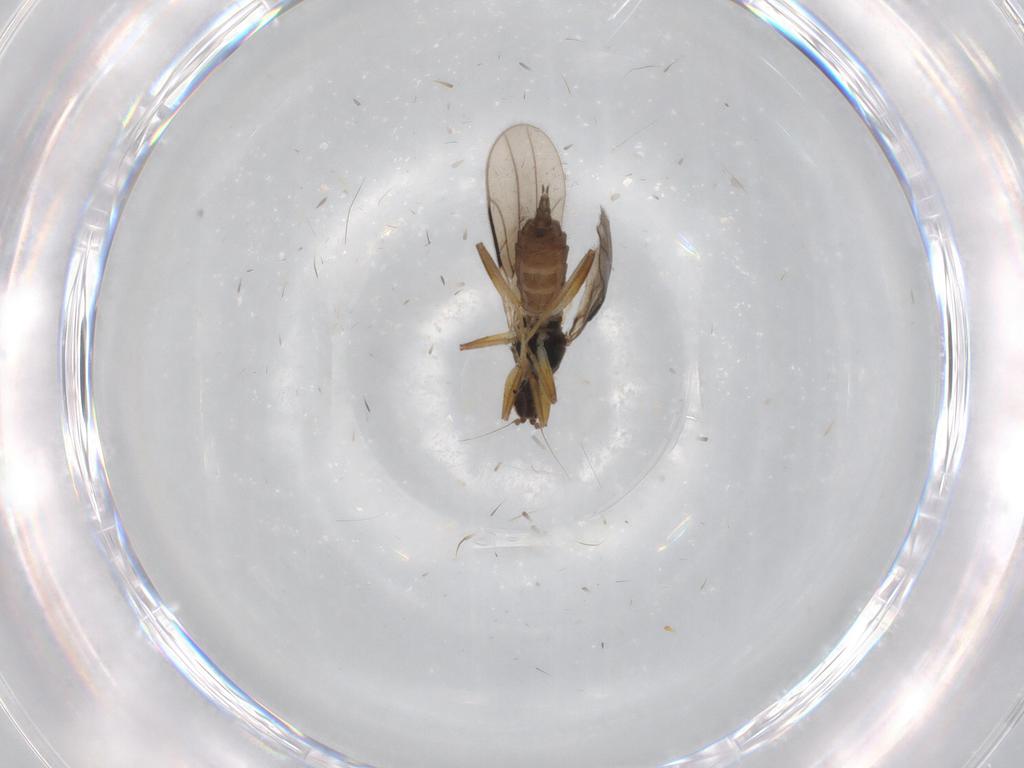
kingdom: Animalia
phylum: Arthropoda
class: Insecta
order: Diptera
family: Hybotidae
